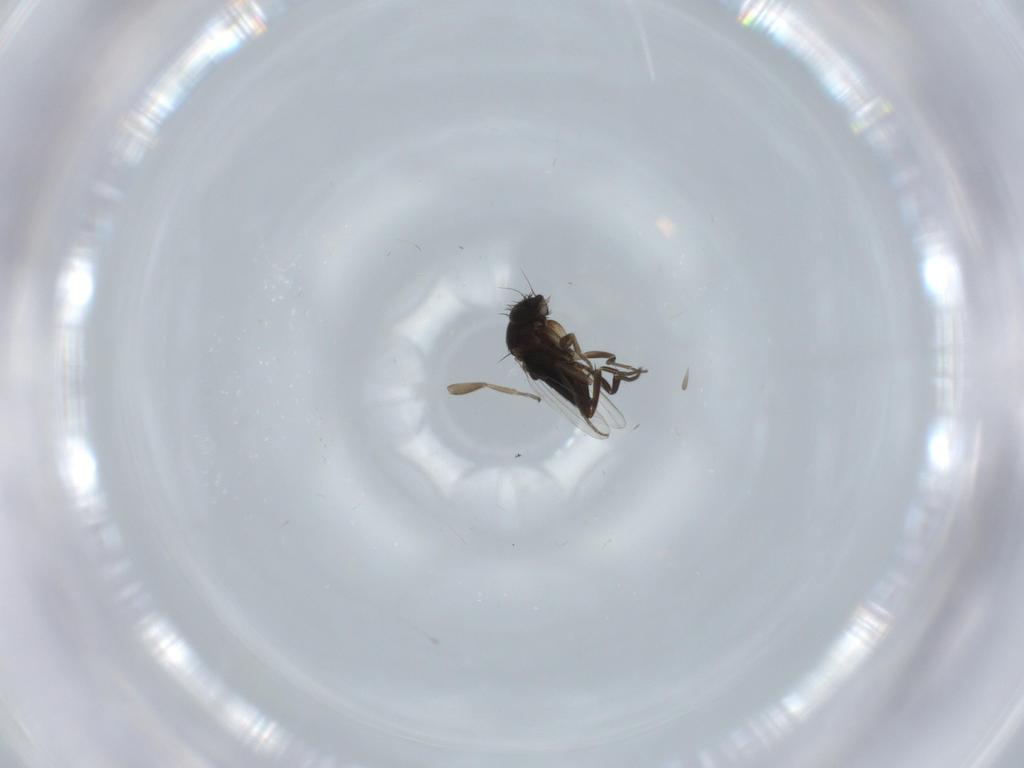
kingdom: Animalia
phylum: Arthropoda
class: Insecta
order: Diptera
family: Phoridae
